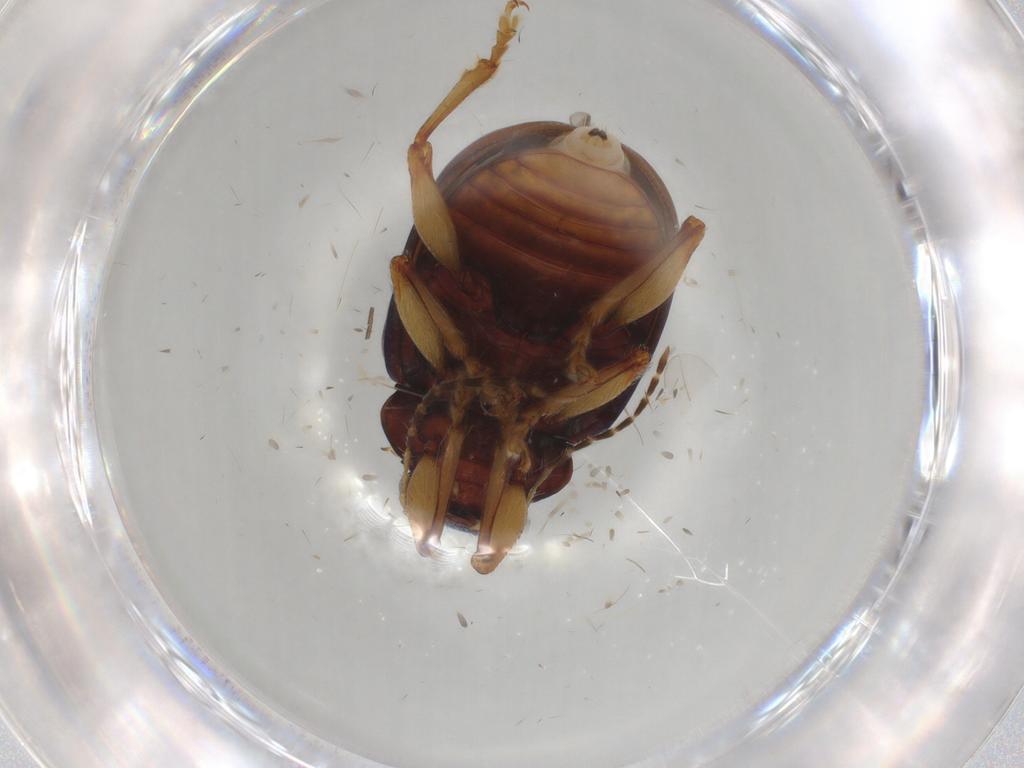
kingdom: Animalia
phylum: Arthropoda
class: Insecta
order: Coleoptera
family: Chrysomelidae
